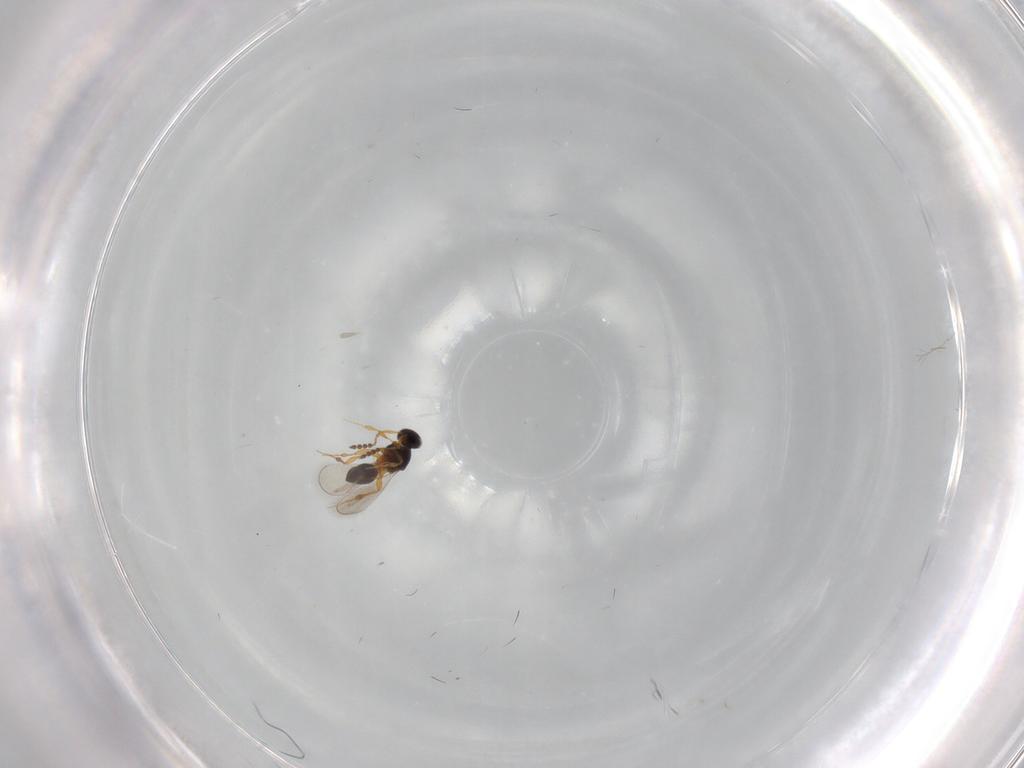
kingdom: Animalia
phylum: Arthropoda
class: Insecta
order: Hymenoptera
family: Platygastridae
